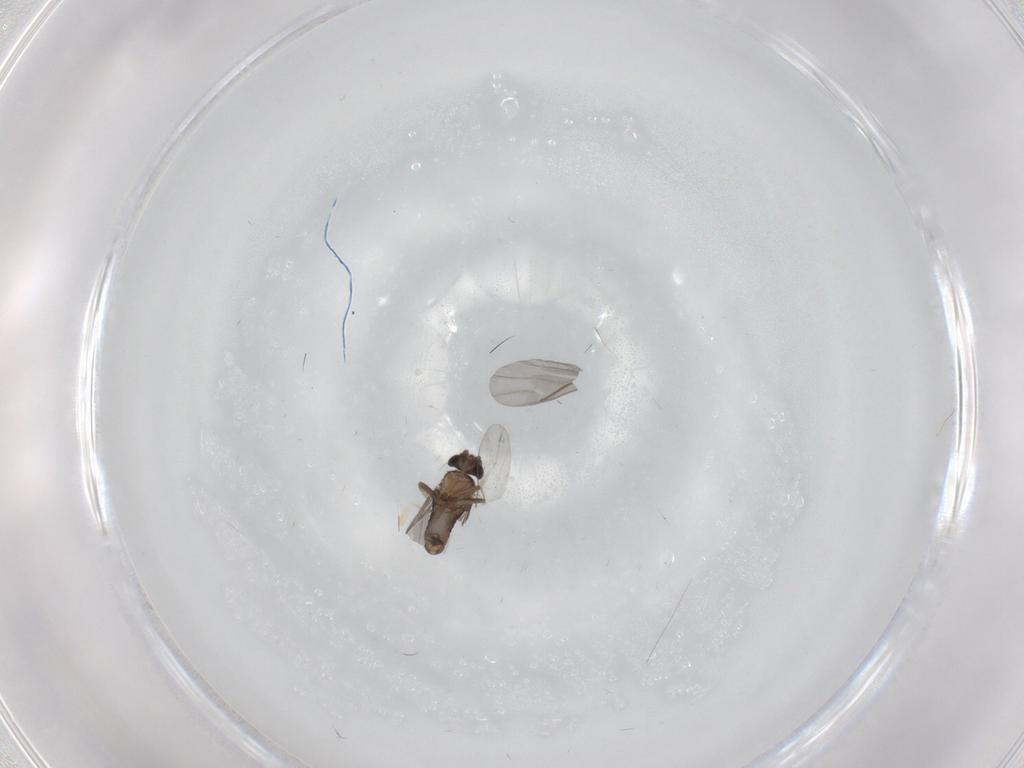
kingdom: Animalia
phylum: Arthropoda
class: Insecta
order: Diptera
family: Cecidomyiidae
